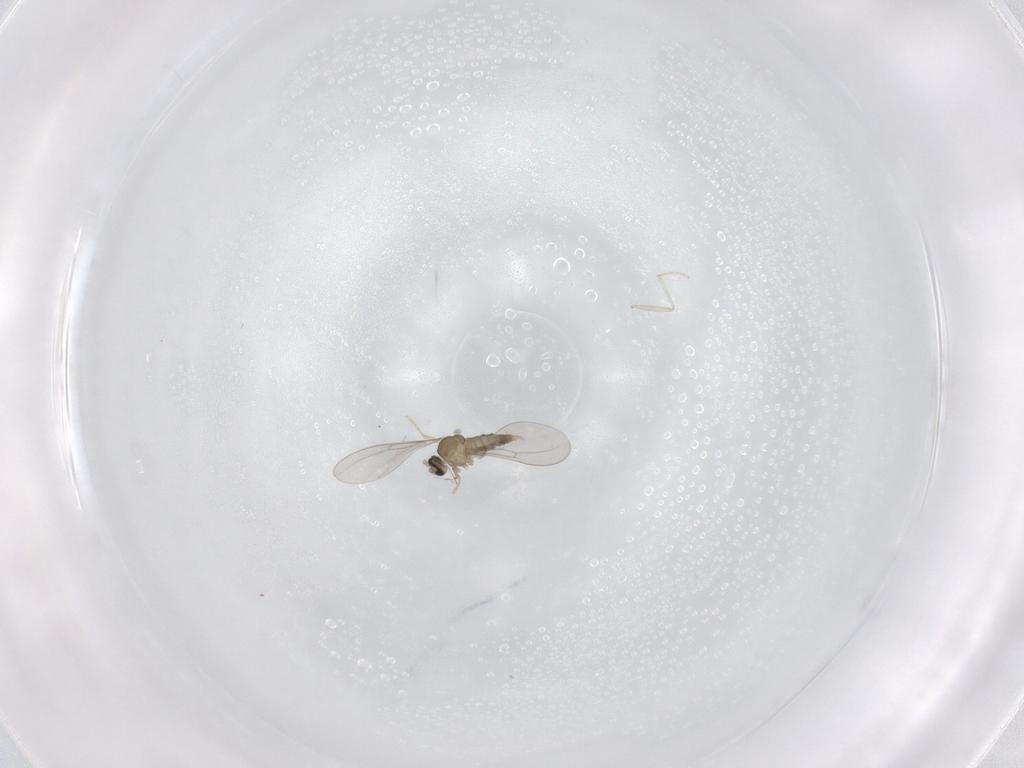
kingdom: Animalia
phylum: Arthropoda
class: Insecta
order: Diptera
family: Cecidomyiidae
